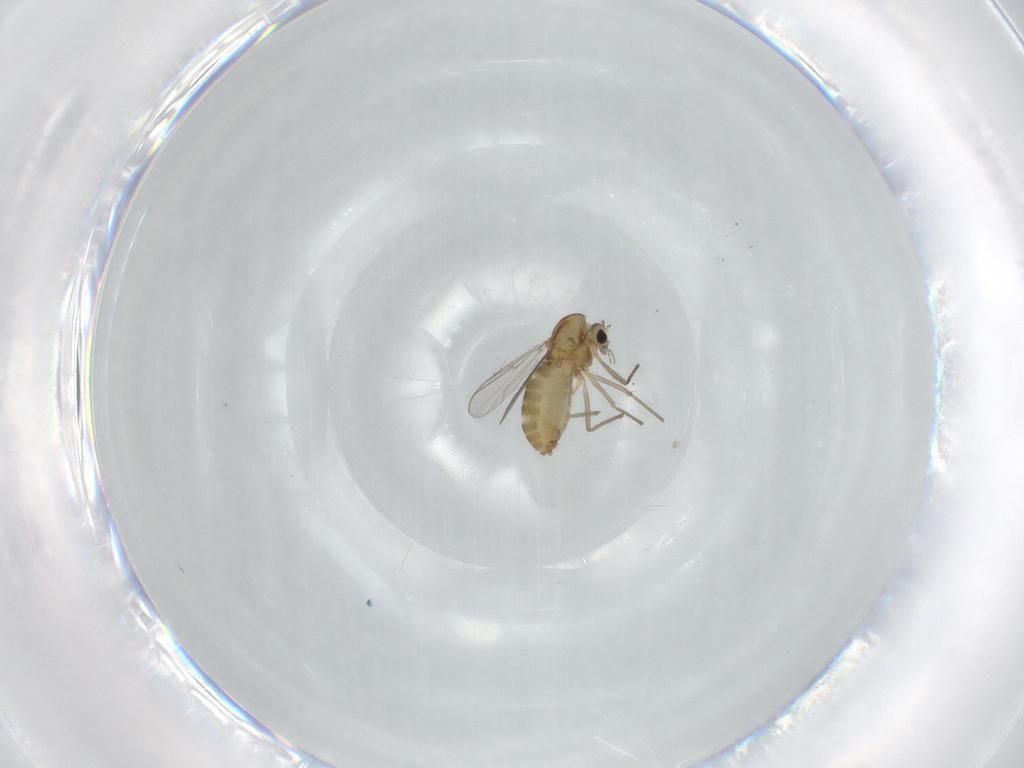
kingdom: Animalia
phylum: Arthropoda
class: Insecta
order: Diptera
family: Chironomidae
